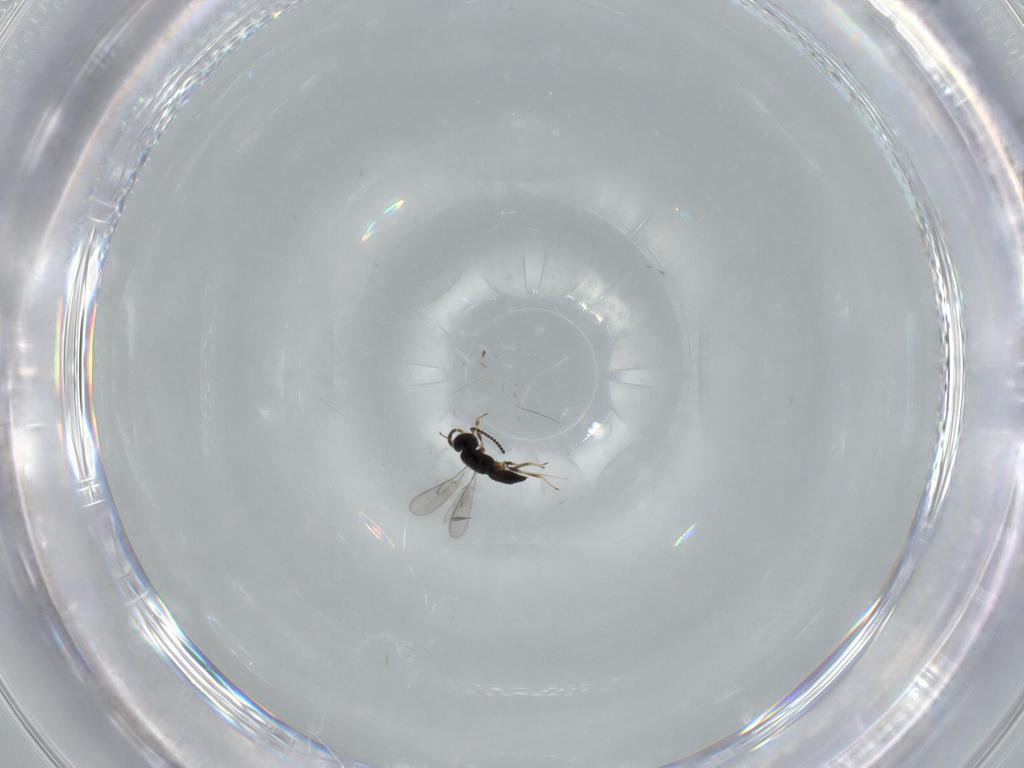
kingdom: Animalia
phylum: Arthropoda
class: Insecta
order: Hymenoptera
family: Scelionidae
